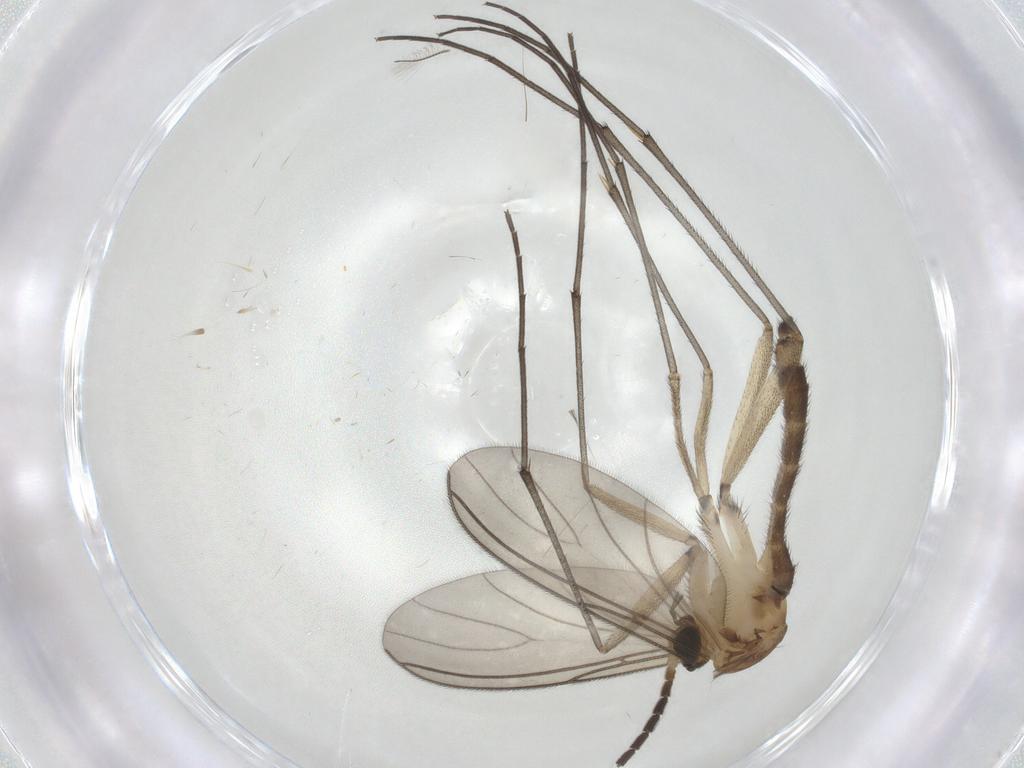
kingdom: Animalia
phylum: Arthropoda
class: Insecta
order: Diptera
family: Sciaridae
